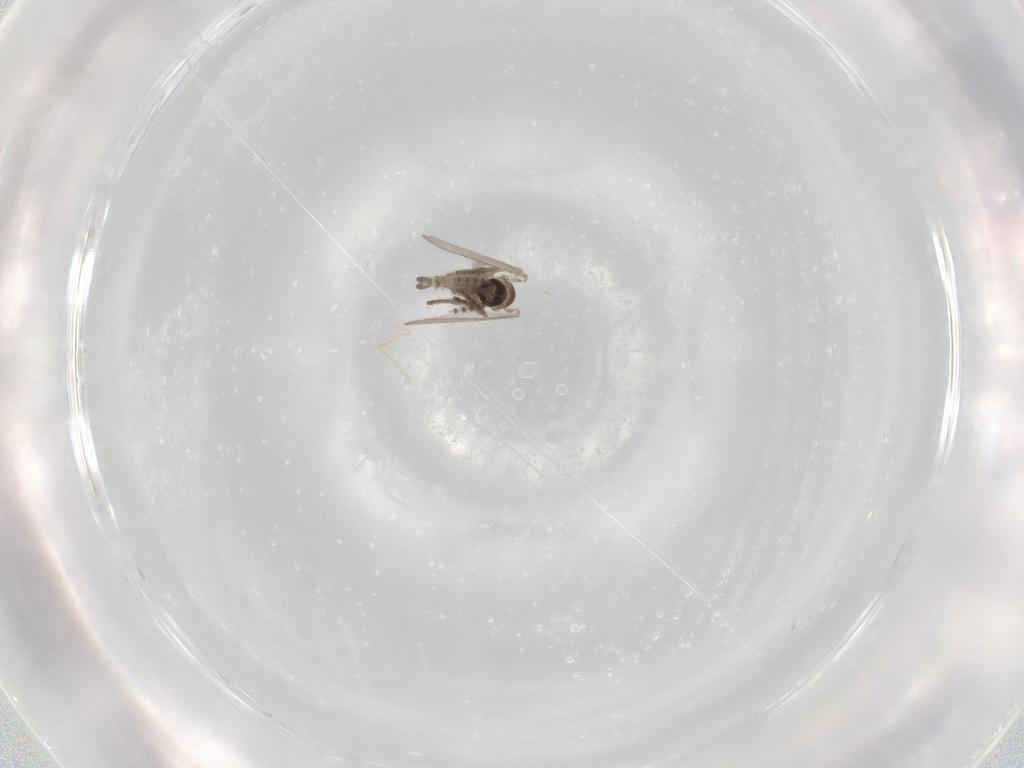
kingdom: Animalia
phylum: Arthropoda
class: Insecta
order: Diptera
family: Psychodidae
